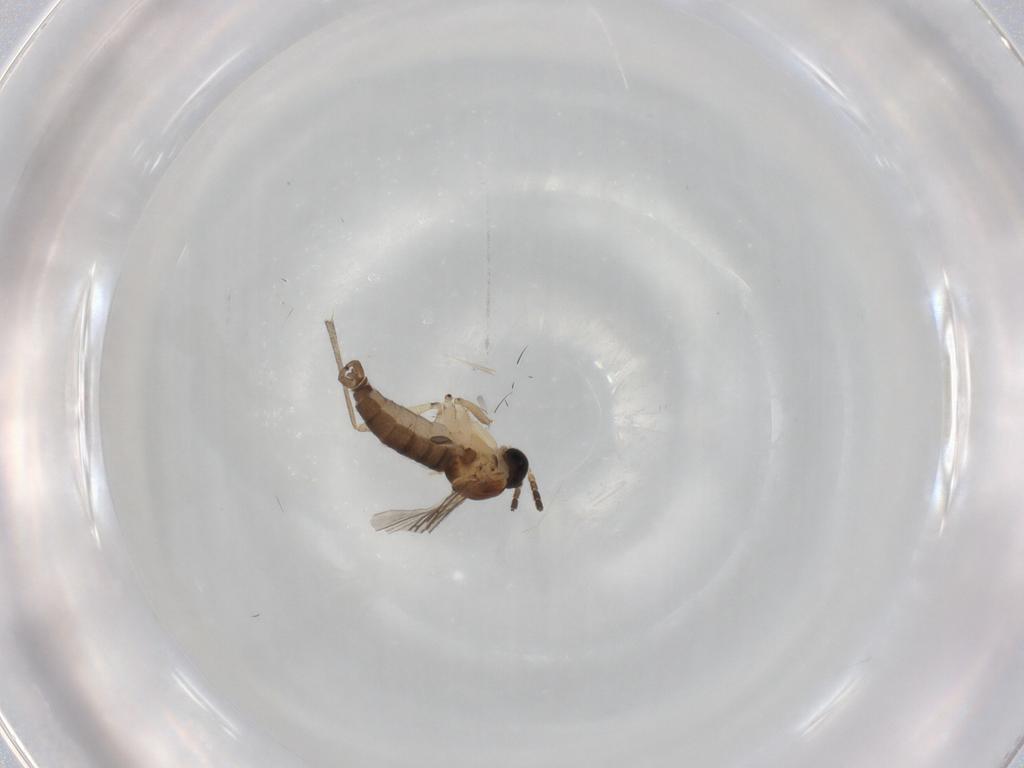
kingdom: Animalia
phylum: Arthropoda
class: Insecta
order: Diptera
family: Sciaridae
